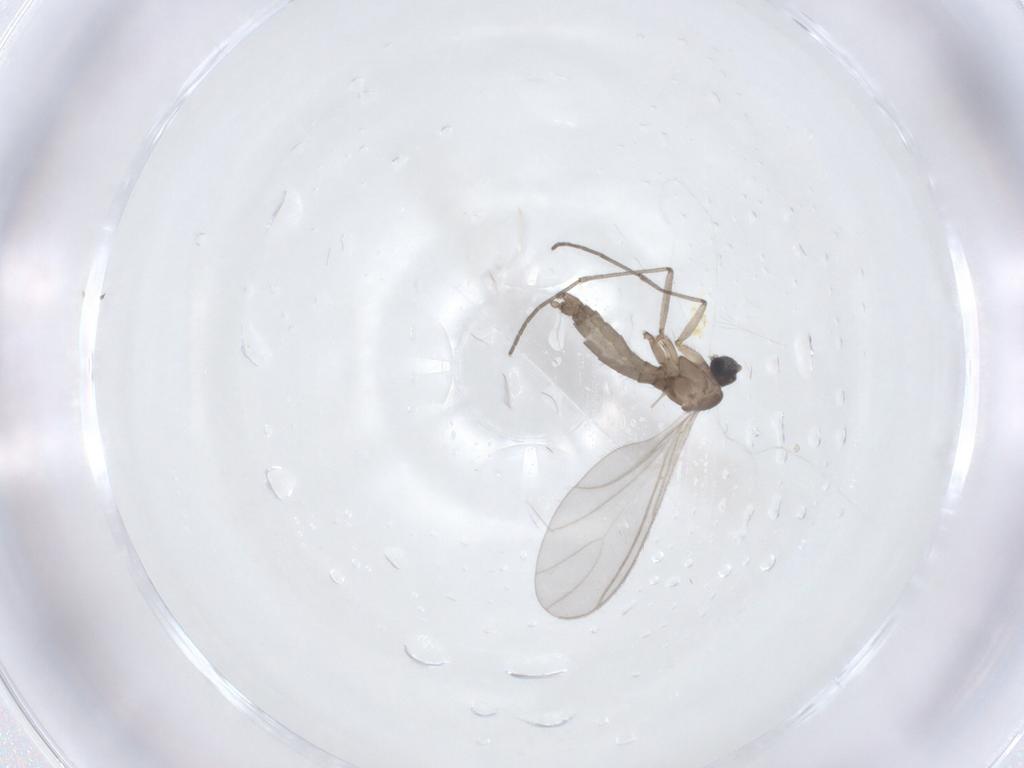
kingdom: Animalia
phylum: Arthropoda
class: Insecta
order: Diptera
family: Sciaridae
